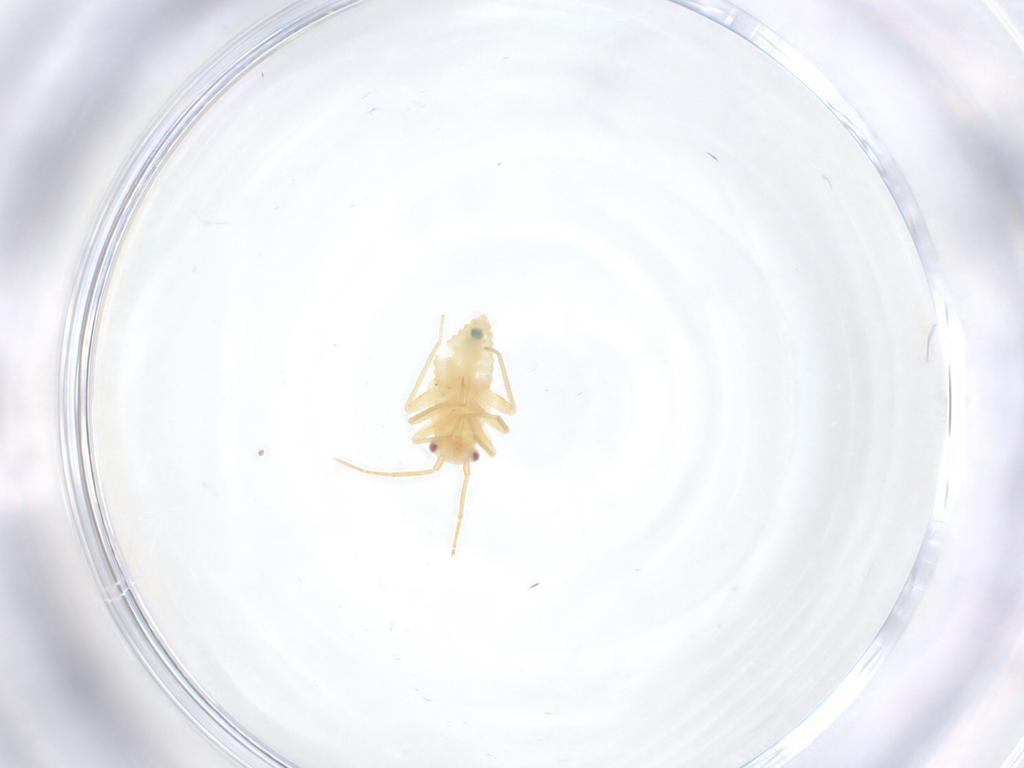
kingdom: Animalia
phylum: Arthropoda
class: Insecta
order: Hemiptera
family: Miridae
